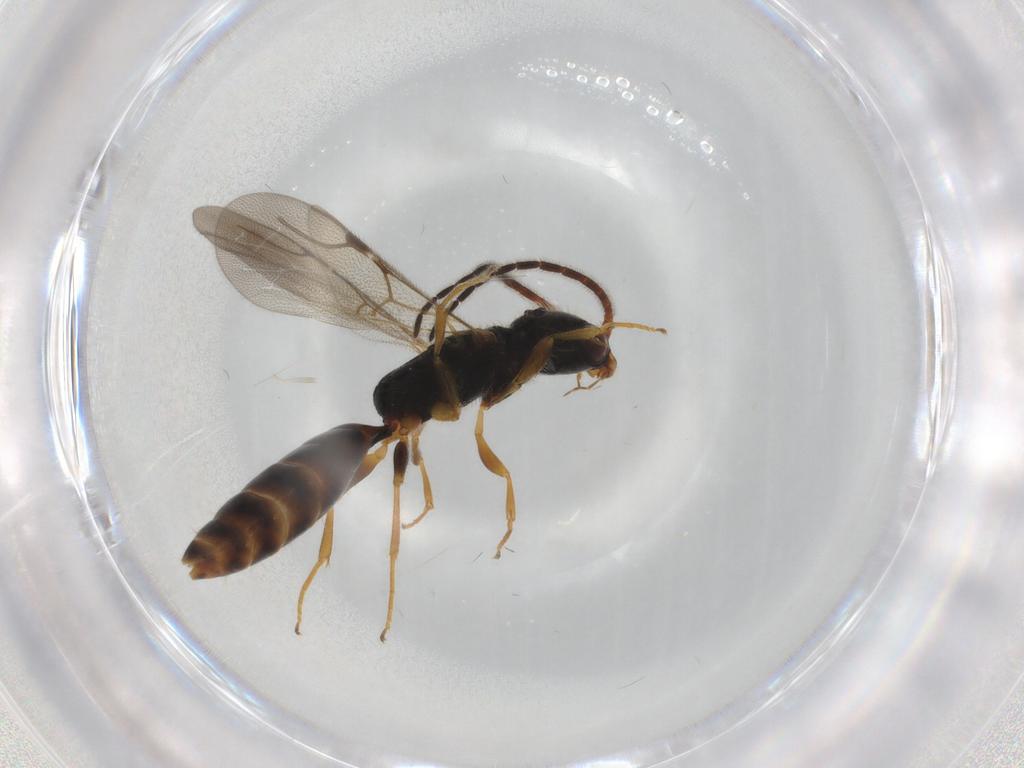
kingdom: Animalia
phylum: Arthropoda
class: Insecta
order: Hymenoptera
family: Bethylidae
